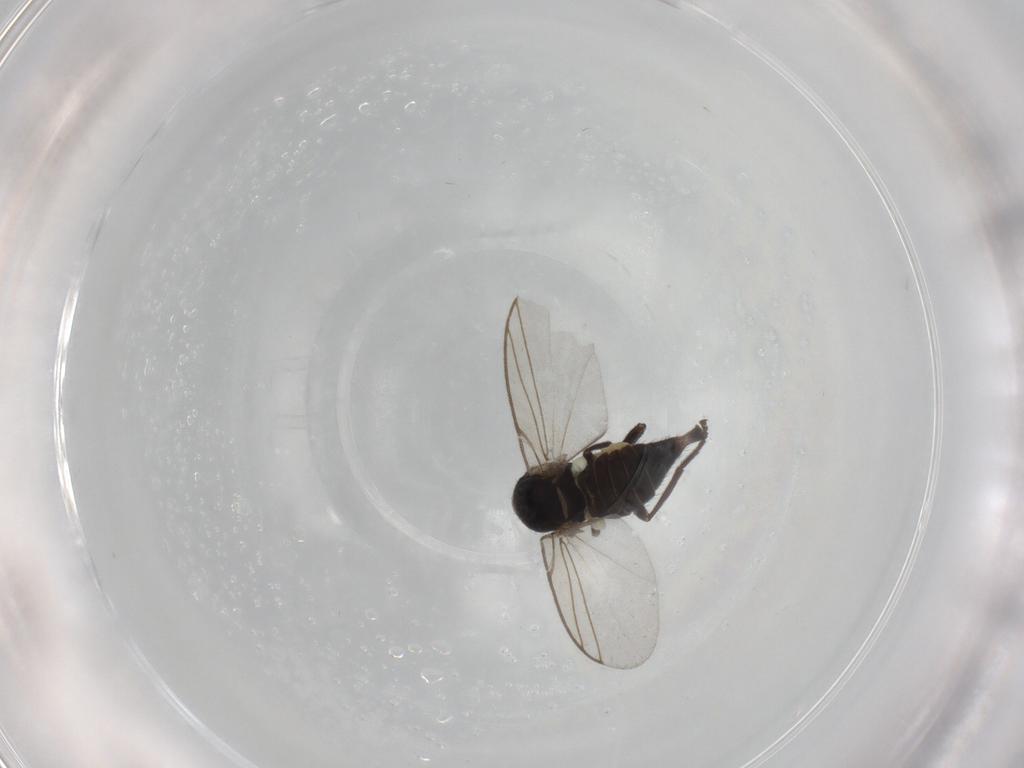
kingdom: Animalia
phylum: Arthropoda
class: Insecta
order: Diptera
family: Agromyzidae
